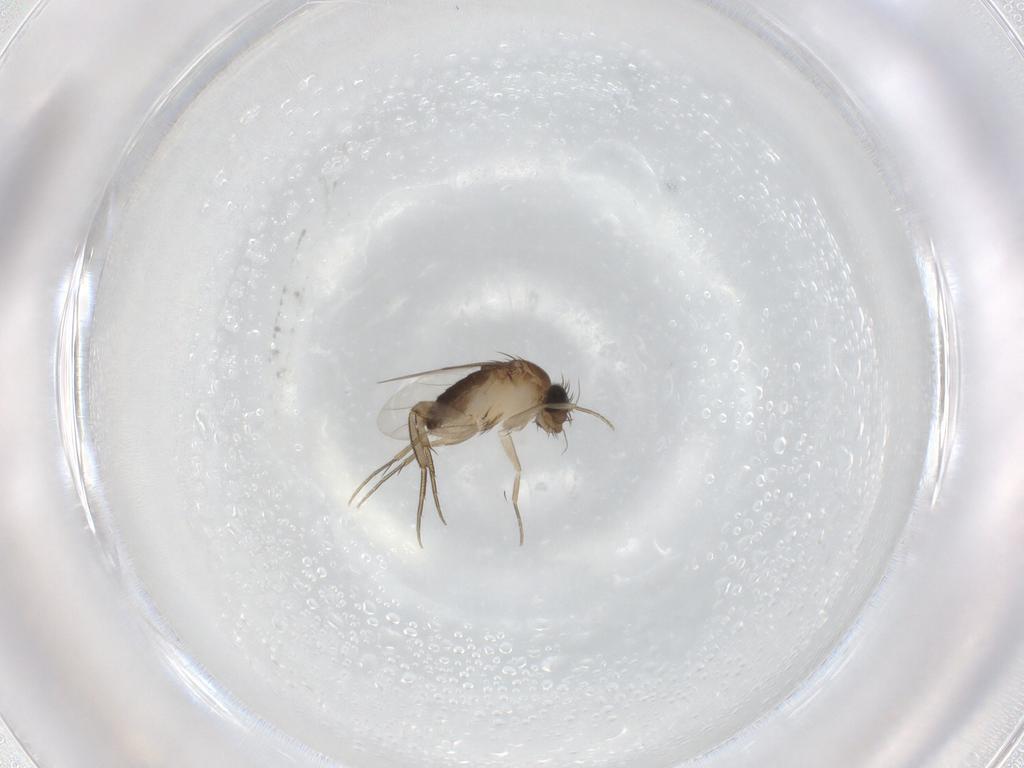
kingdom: Animalia
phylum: Arthropoda
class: Insecta
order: Diptera
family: Phoridae
